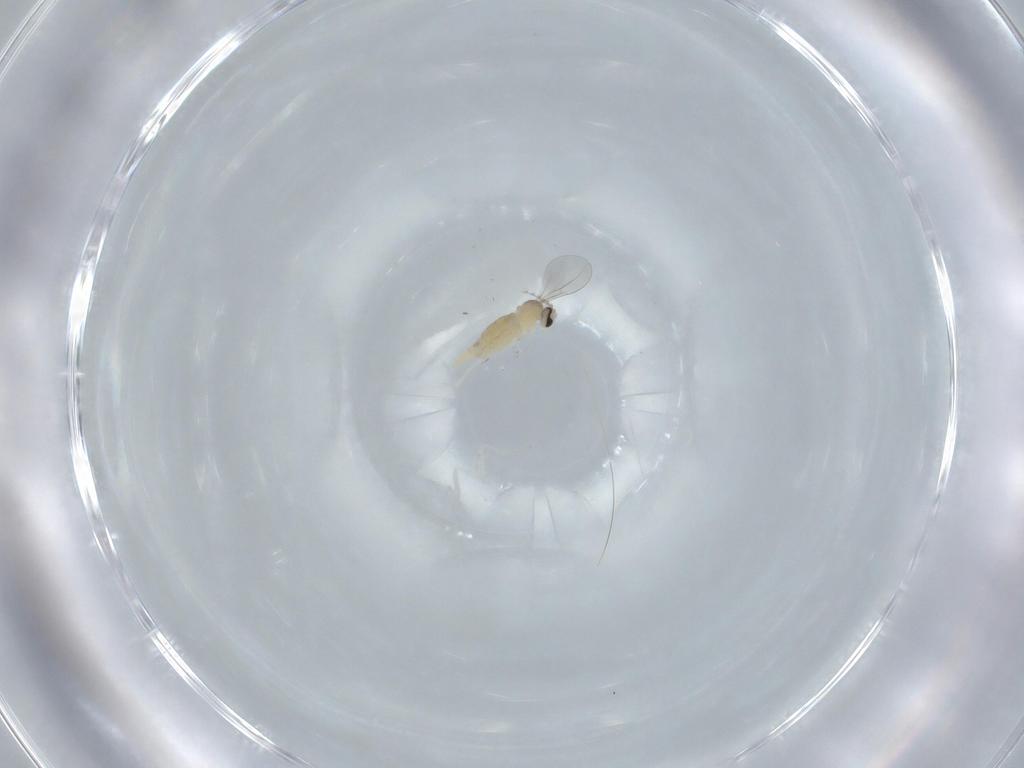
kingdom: Animalia
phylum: Arthropoda
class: Insecta
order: Diptera
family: Cecidomyiidae
